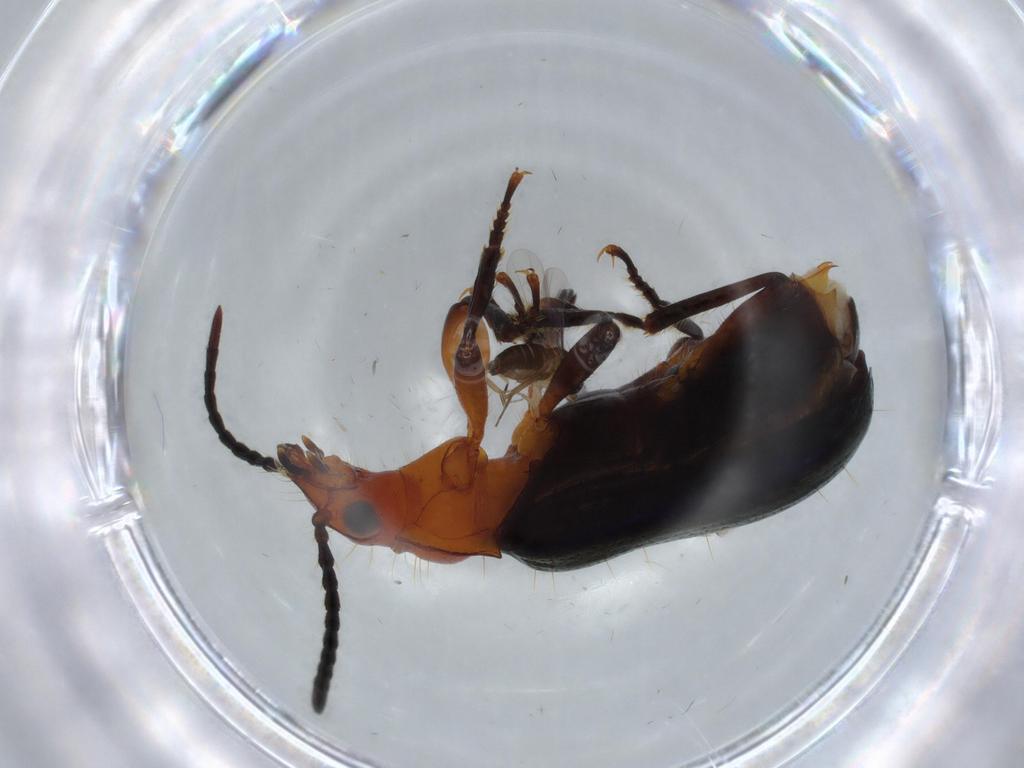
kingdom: Animalia
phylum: Arthropoda
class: Insecta
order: Coleoptera
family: Carabidae
